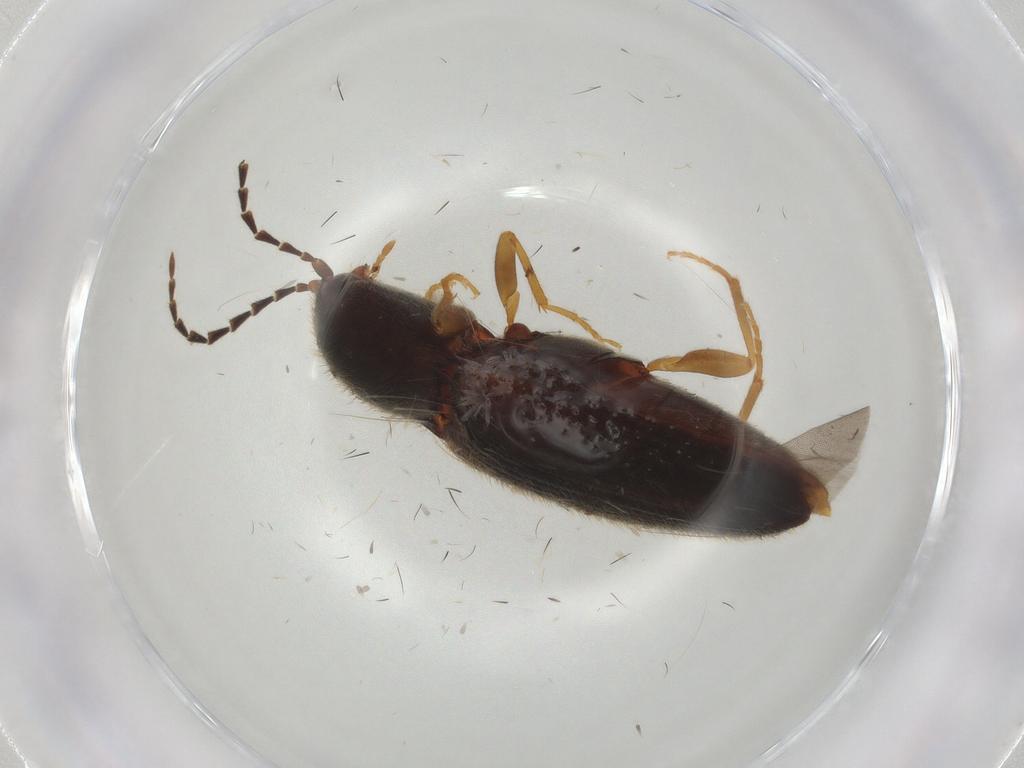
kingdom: Animalia
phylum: Arthropoda
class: Insecta
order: Coleoptera
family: Elateridae
